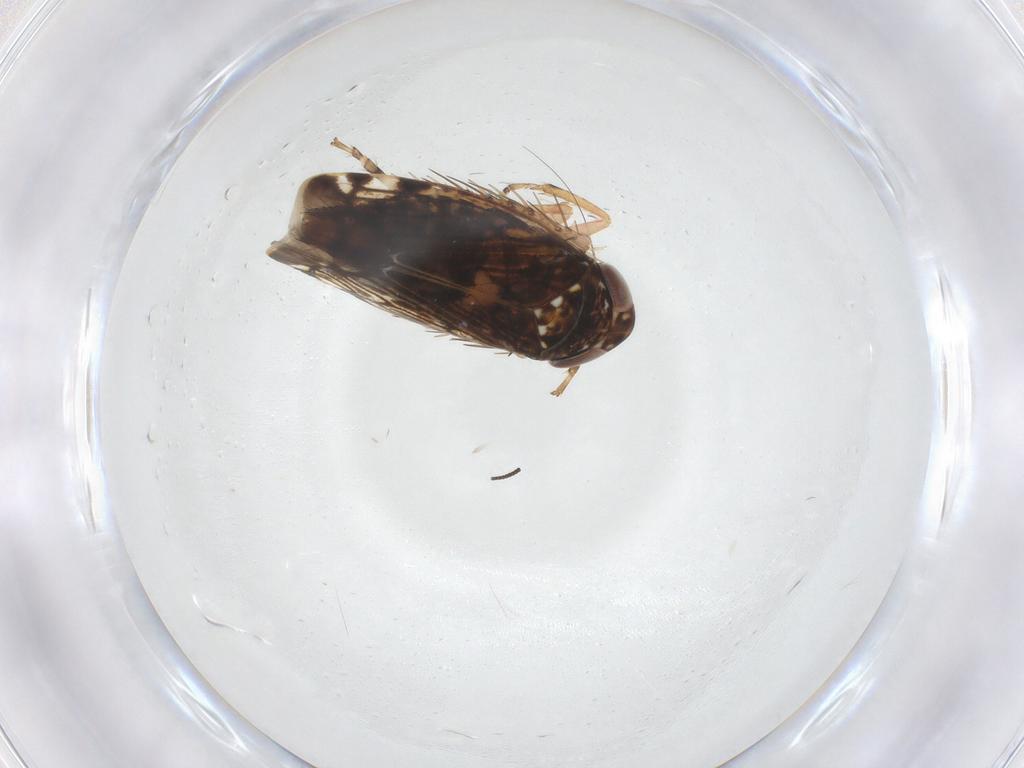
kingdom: Animalia
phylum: Arthropoda
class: Insecta
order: Hemiptera
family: Cicadellidae
